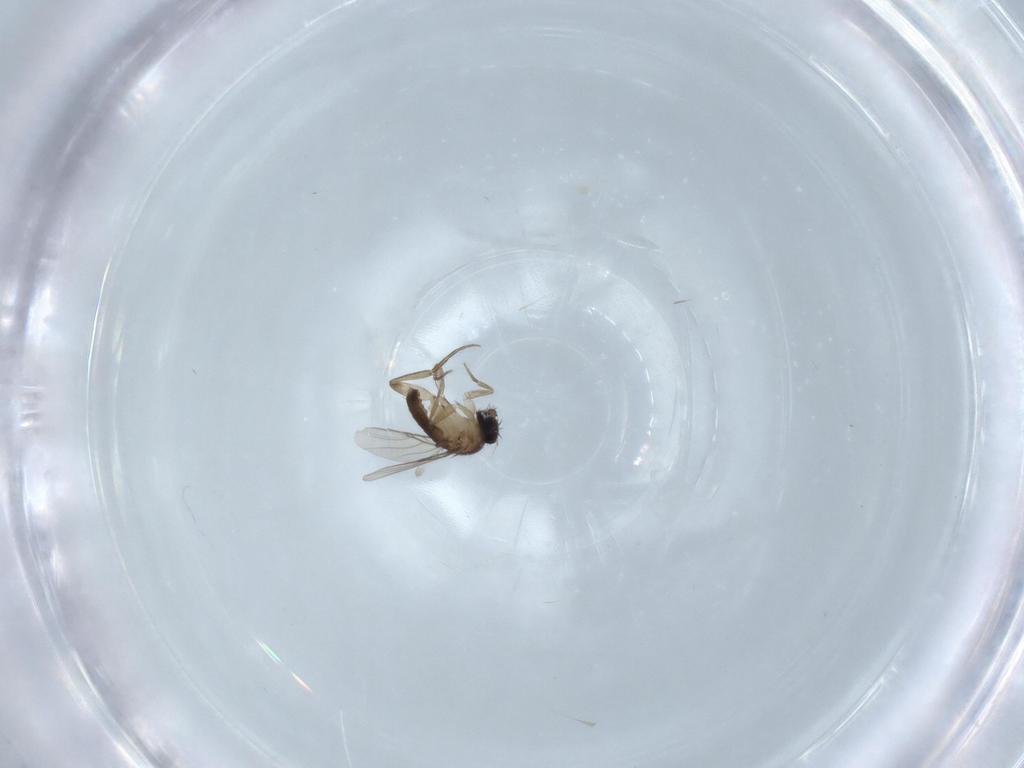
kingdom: Animalia
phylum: Arthropoda
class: Insecta
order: Diptera
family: Phoridae
